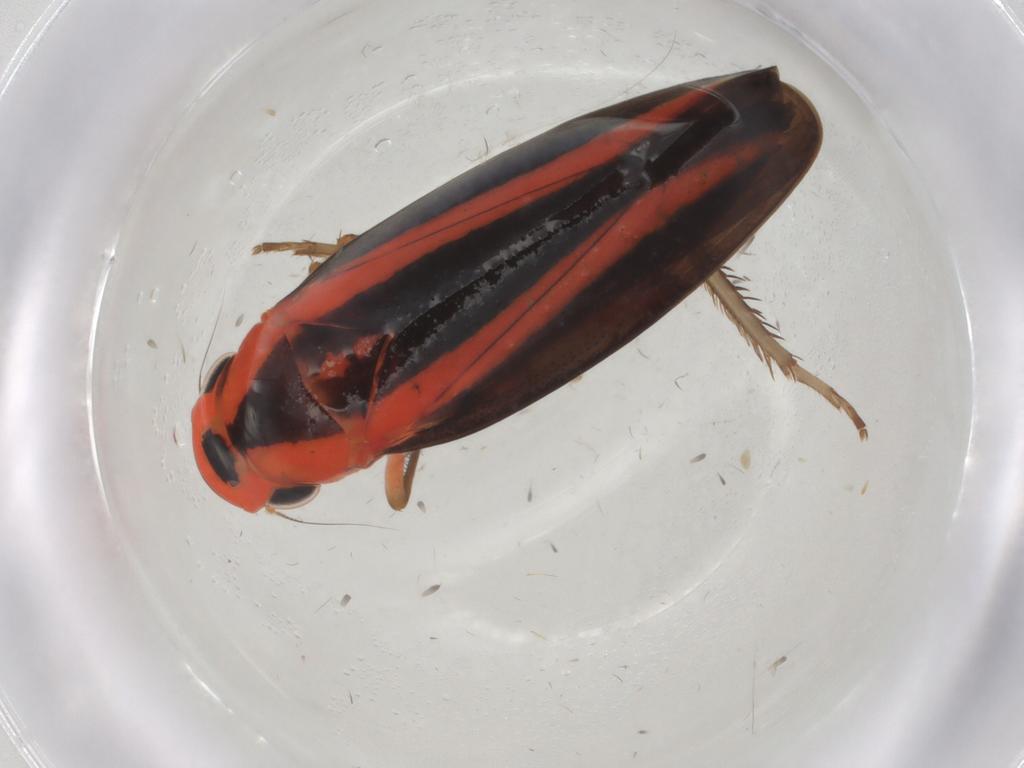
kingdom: Animalia
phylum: Arthropoda
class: Insecta
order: Hemiptera
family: Cicadellidae
